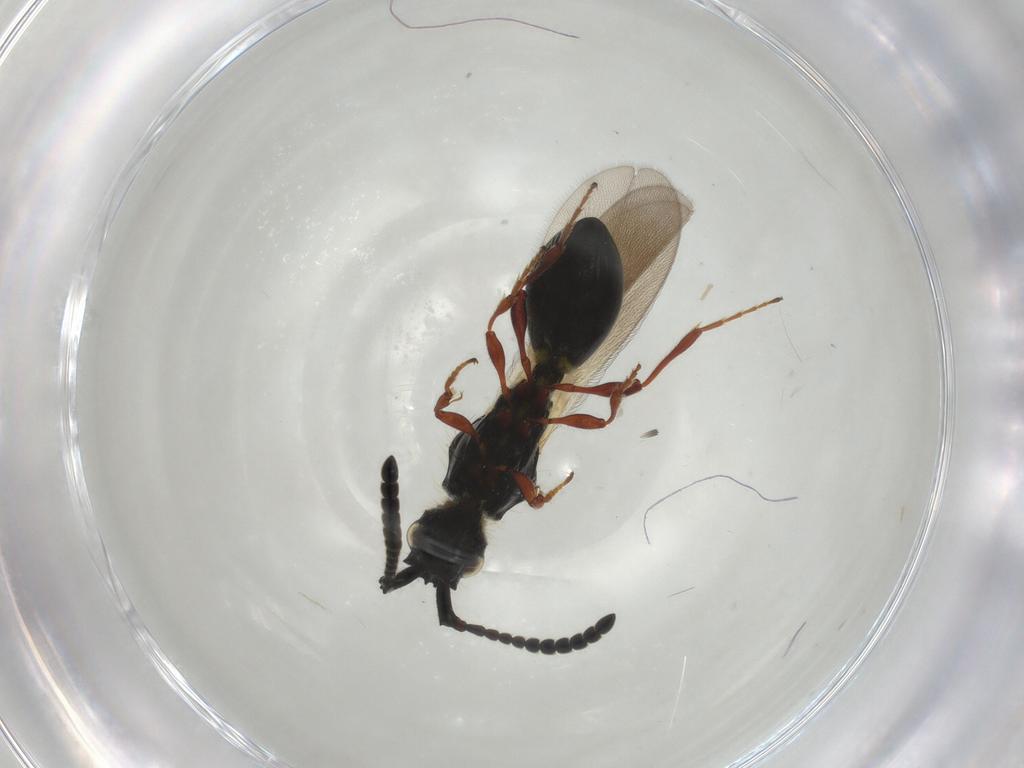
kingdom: Animalia
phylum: Arthropoda
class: Insecta
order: Hymenoptera
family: Diapriidae
